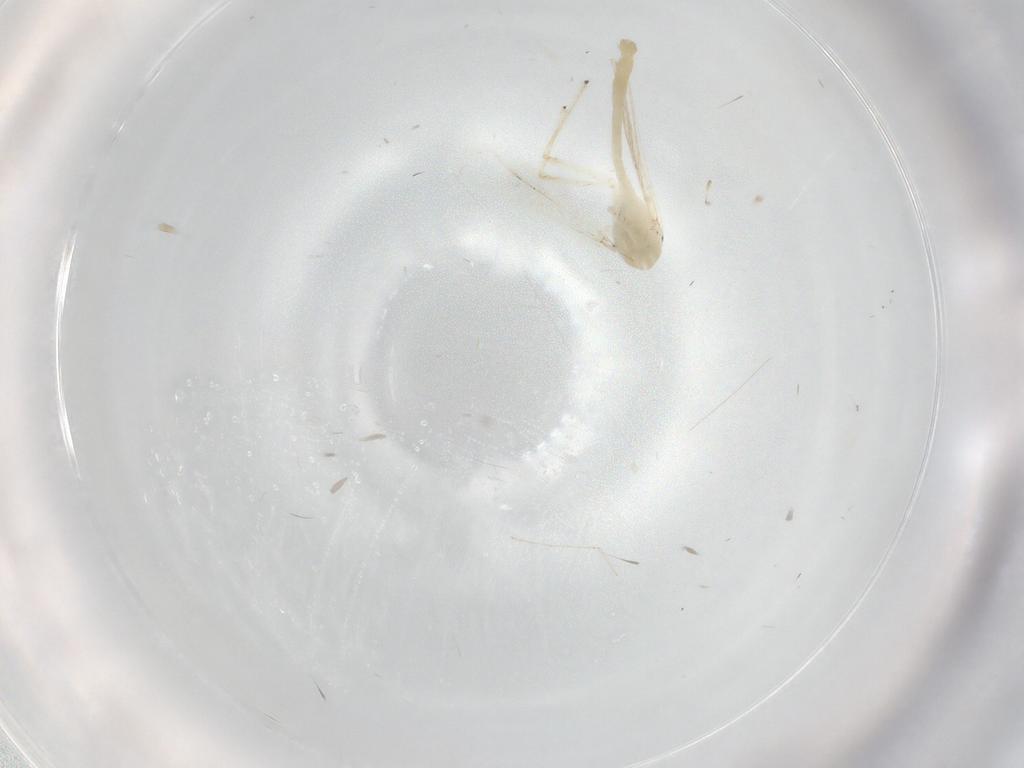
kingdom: Animalia
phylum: Arthropoda
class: Insecta
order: Diptera
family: Cecidomyiidae
